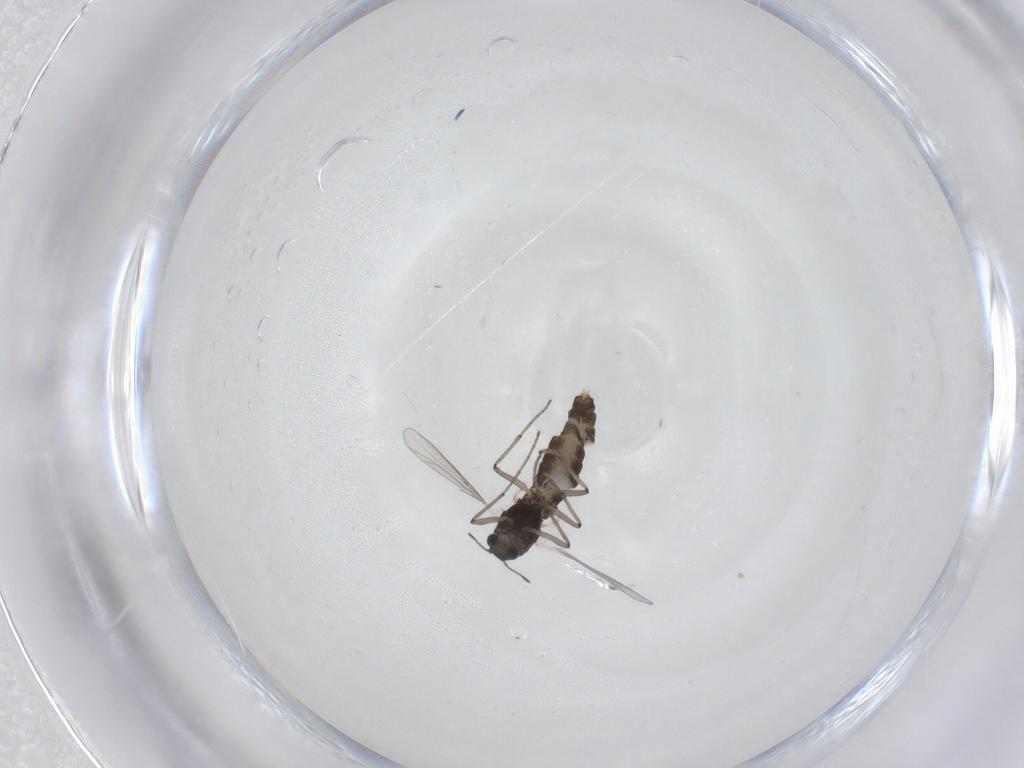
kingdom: Animalia
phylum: Arthropoda
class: Insecta
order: Diptera
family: Chironomidae
